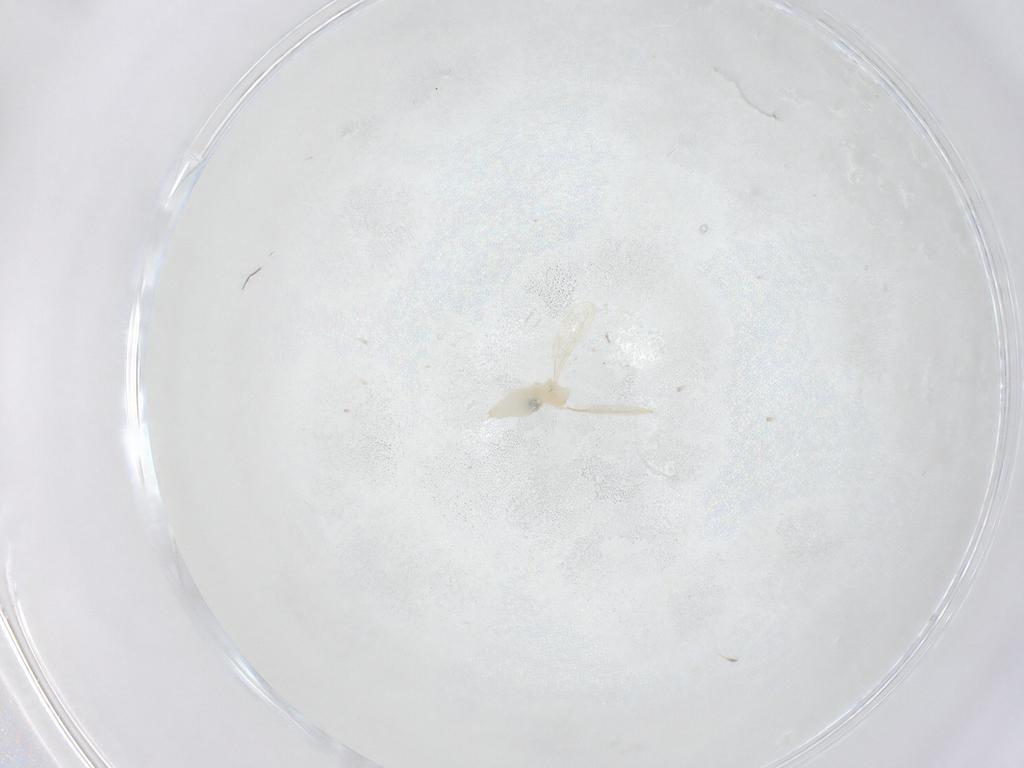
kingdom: Animalia
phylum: Arthropoda
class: Insecta
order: Diptera
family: Cecidomyiidae
